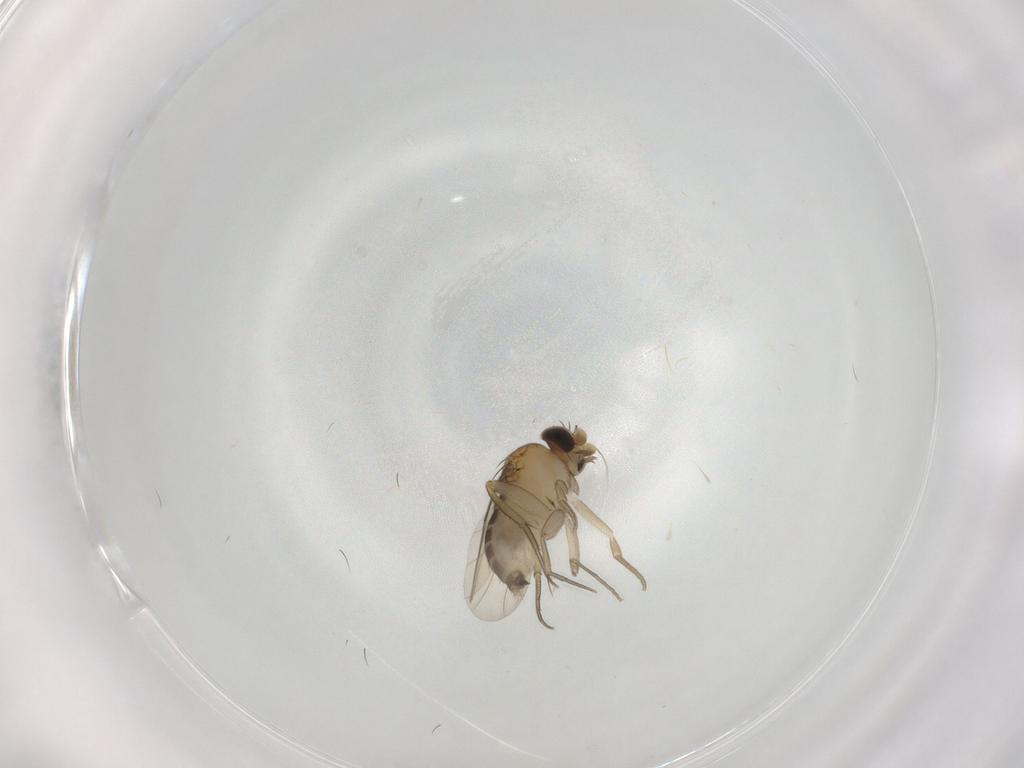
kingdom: Animalia
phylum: Arthropoda
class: Insecta
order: Diptera
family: Phoridae
